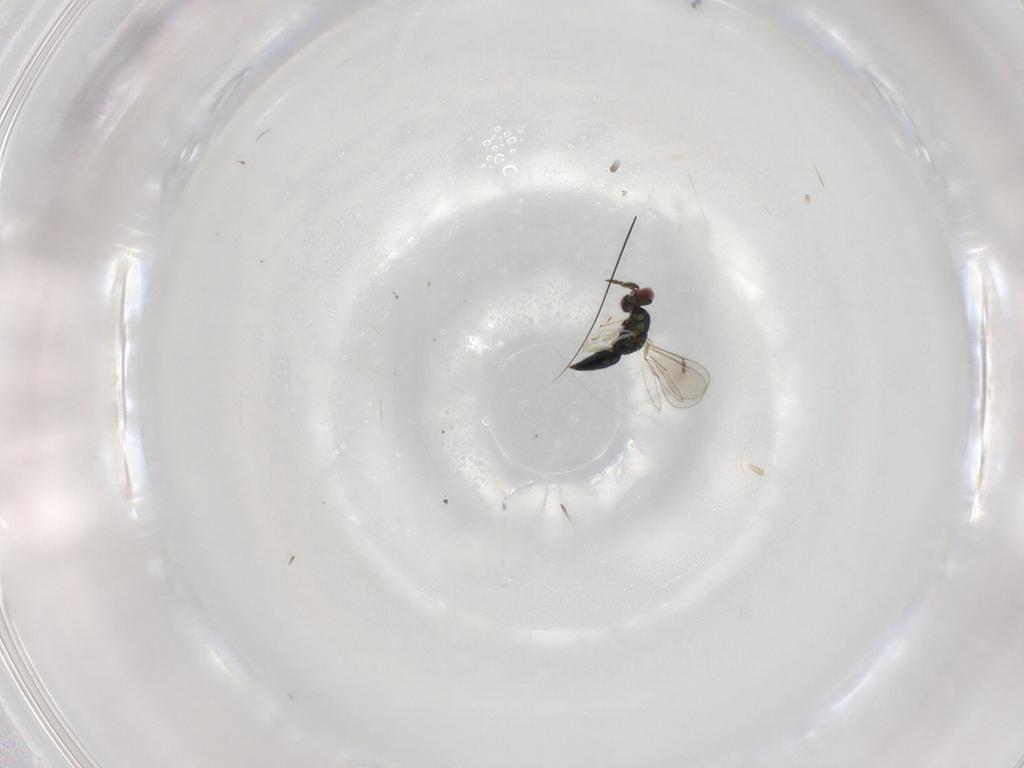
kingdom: Animalia
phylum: Arthropoda
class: Insecta
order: Hymenoptera
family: Eulophidae
